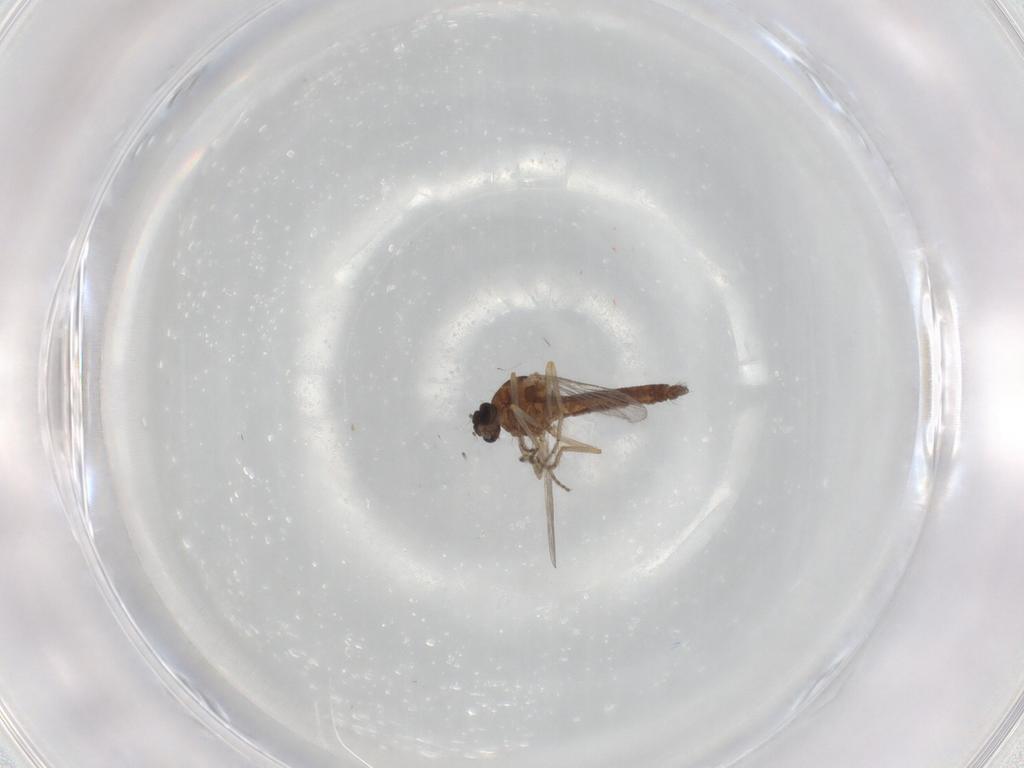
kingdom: Animalia
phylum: Arthropoda
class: Insecta
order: Diptera
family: Ceratopogonidae
